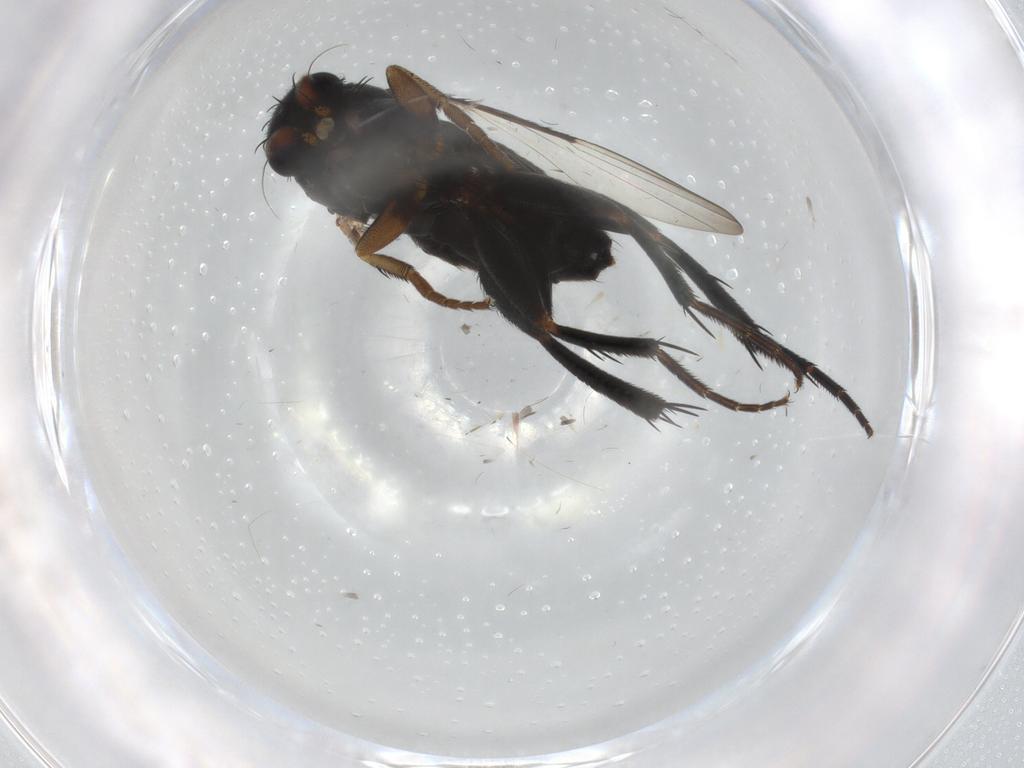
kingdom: Animalia
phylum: Arthropoda
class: Insecta
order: Diptera
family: Phoridae
